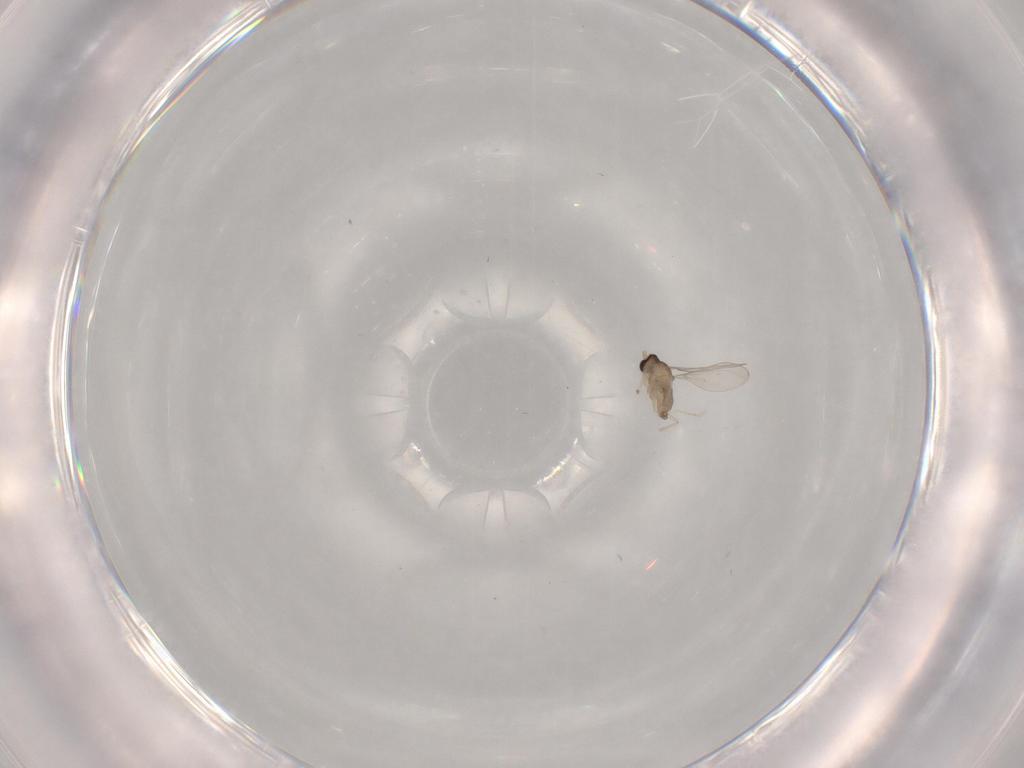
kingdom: Animalia
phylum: Arthropoda
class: Insecta
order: Diptera
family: Cecidomyiidae
